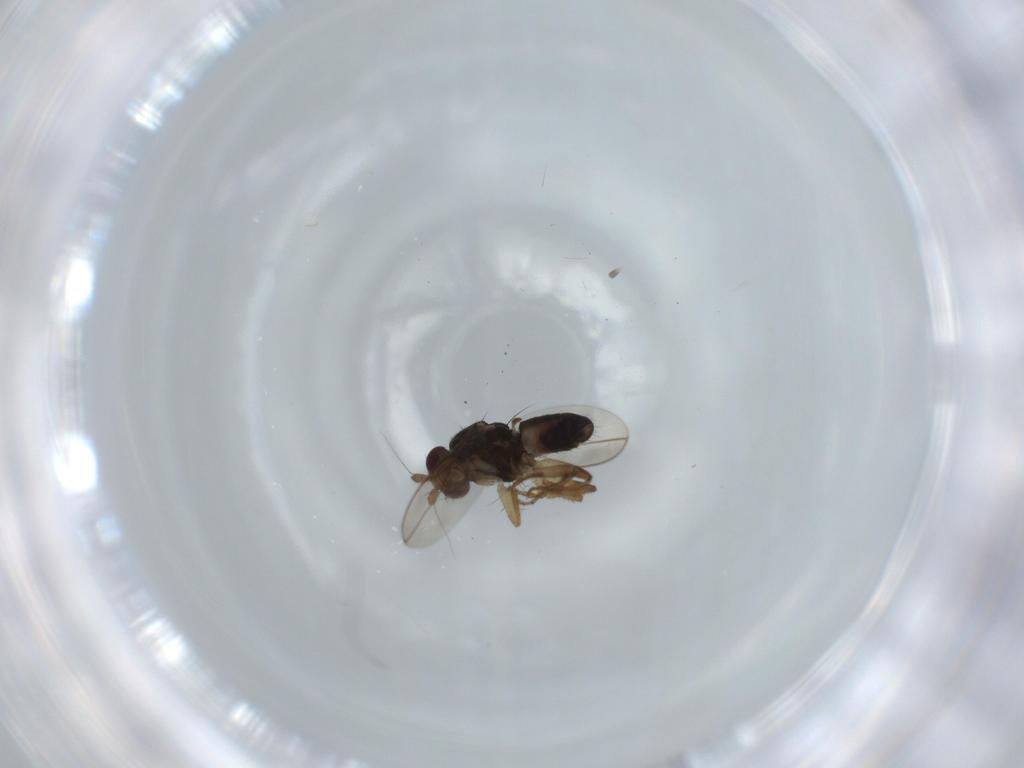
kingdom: Animalia
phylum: Arthropoda
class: Insecta
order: Diptera
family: Sphaeroceridae
